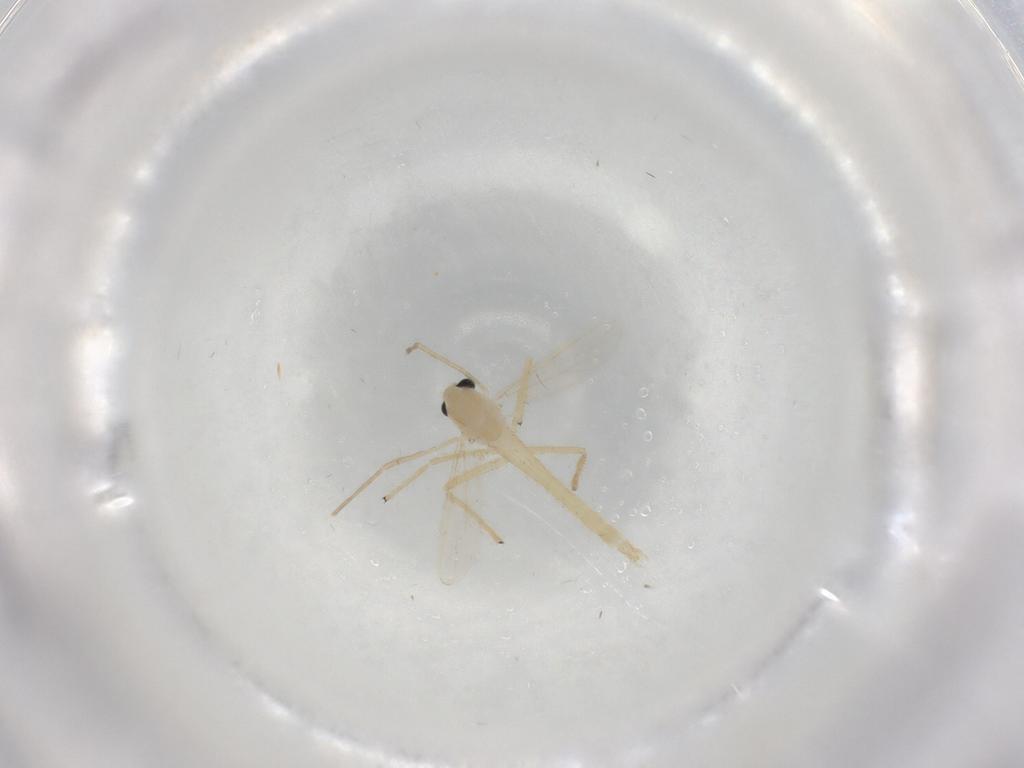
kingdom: Animalia
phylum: Arthropoda
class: Insecta
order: Diptera
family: Chironomidae
